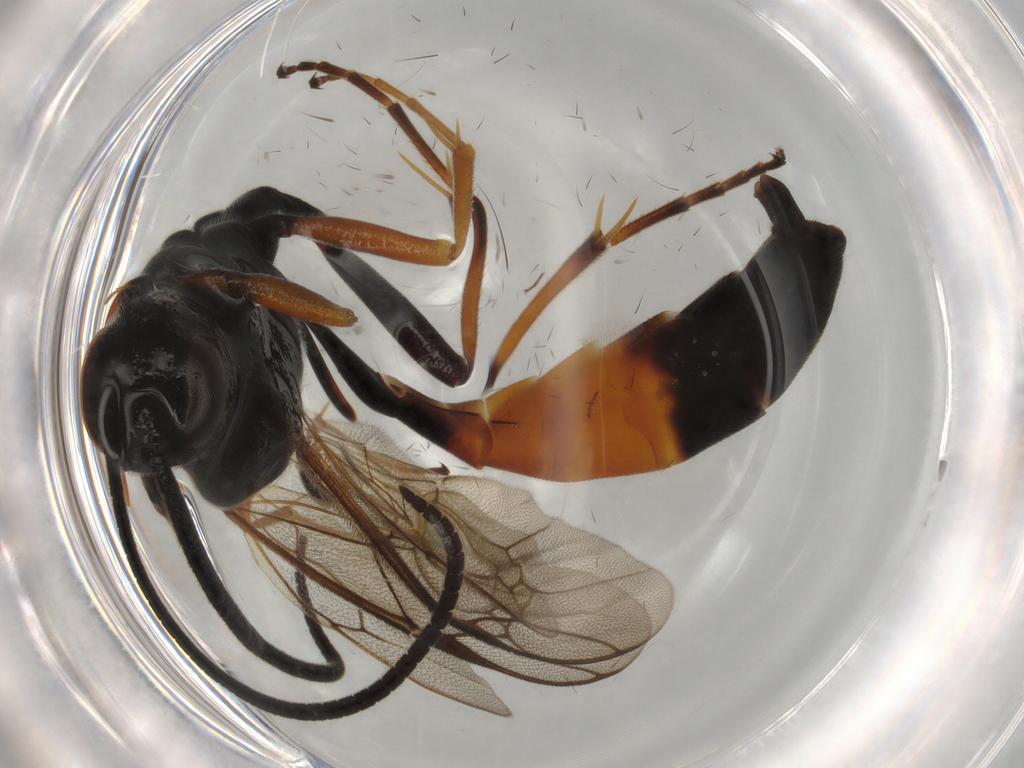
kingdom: Animalia
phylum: Arthropoda
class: Insecta
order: Hymenoptera
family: Ichneumonidae
